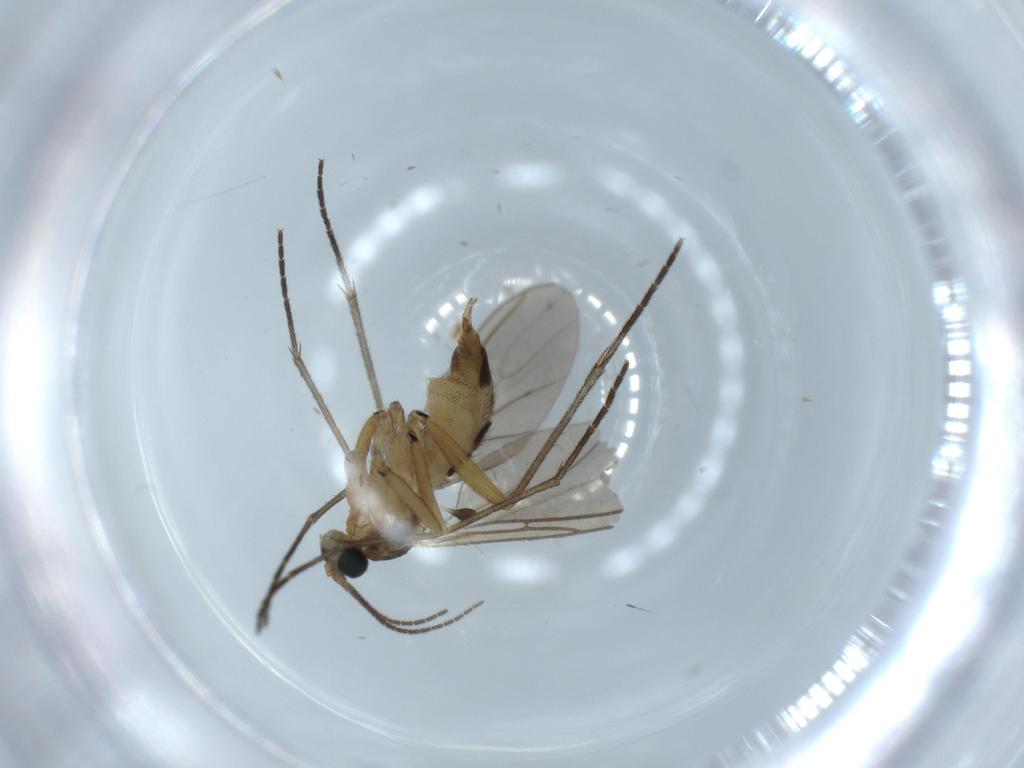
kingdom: Animalia
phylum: Arthropoda
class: Insecta
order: Diptera
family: Sciaridae
